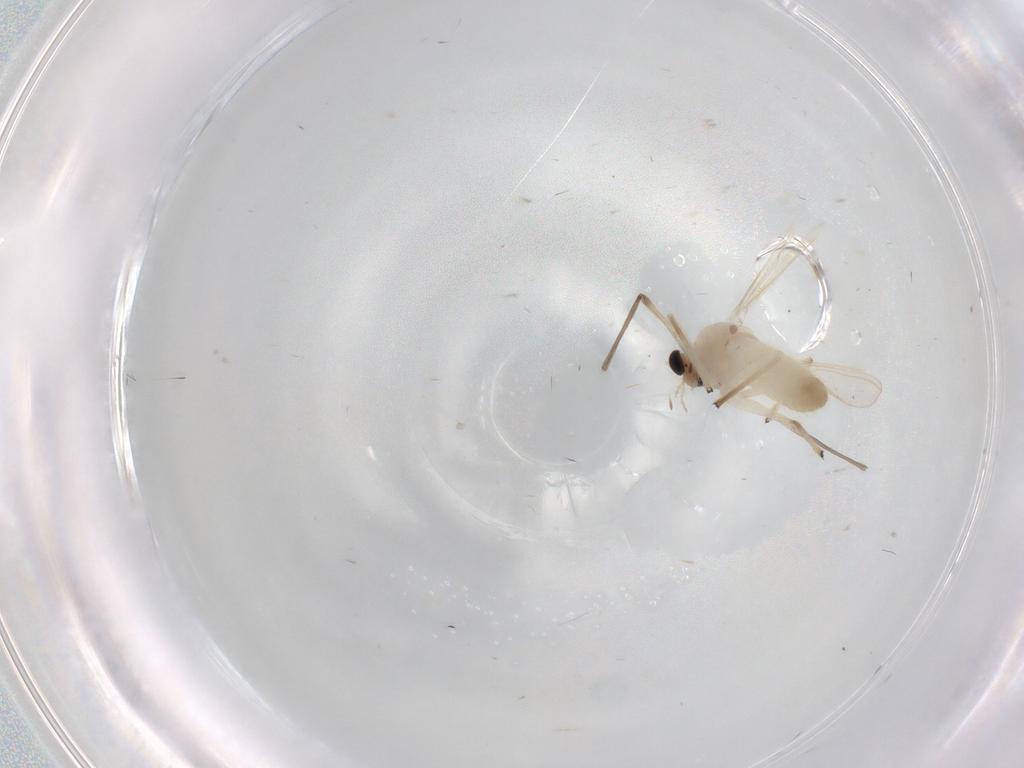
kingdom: Animalia
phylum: Arthropoda
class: Insecta
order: Diptera
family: Chironomidae
